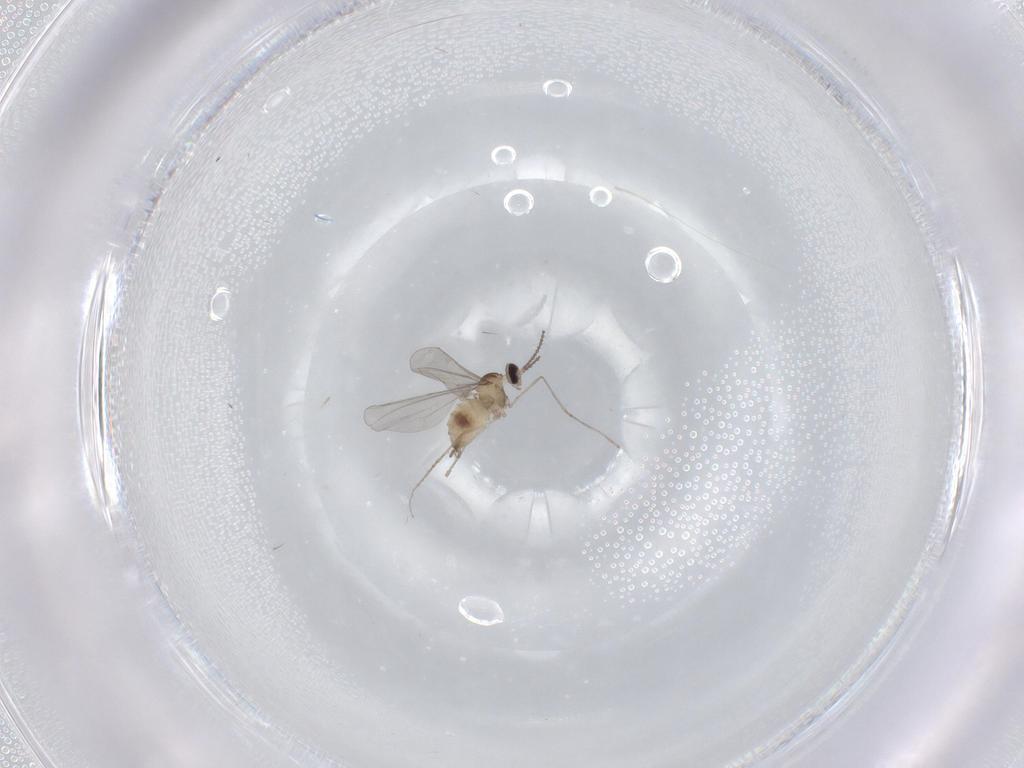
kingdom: Animalia
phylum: Arthropoda
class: Insecta
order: Diptera
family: Cecidomyiidae
